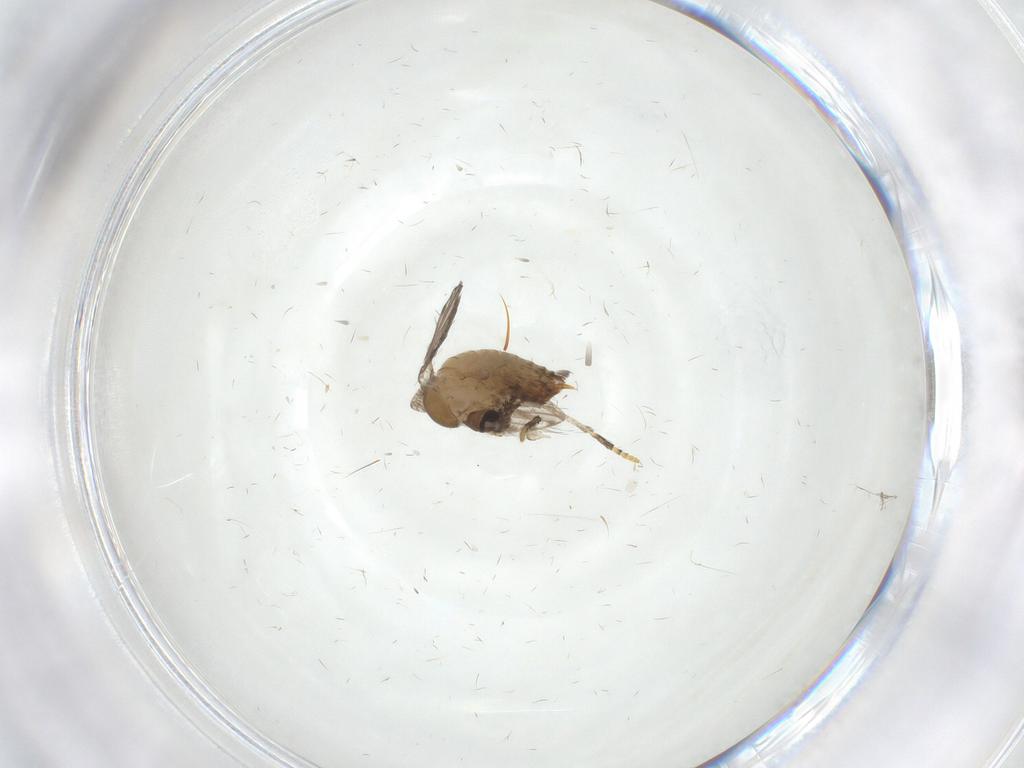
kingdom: Animalia
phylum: Arthropoda
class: Insecta
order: Diptera
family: Psychodidae
